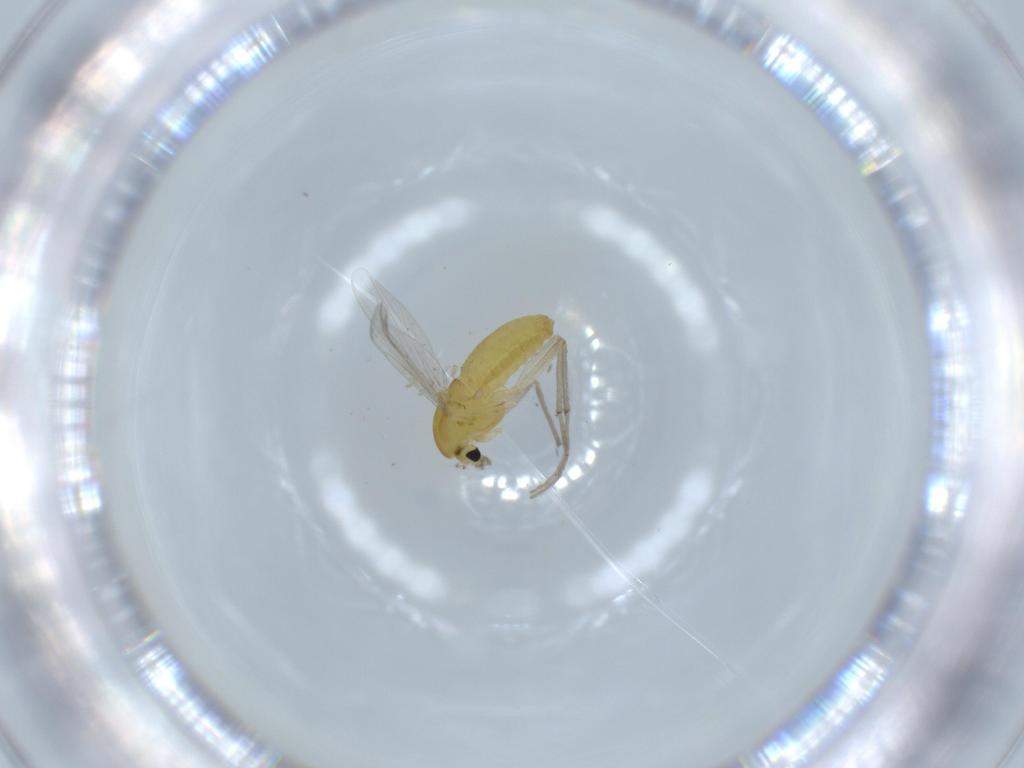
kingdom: Animalia
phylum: Arthropoda
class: Insecta
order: Diptera
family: Chironomidae
